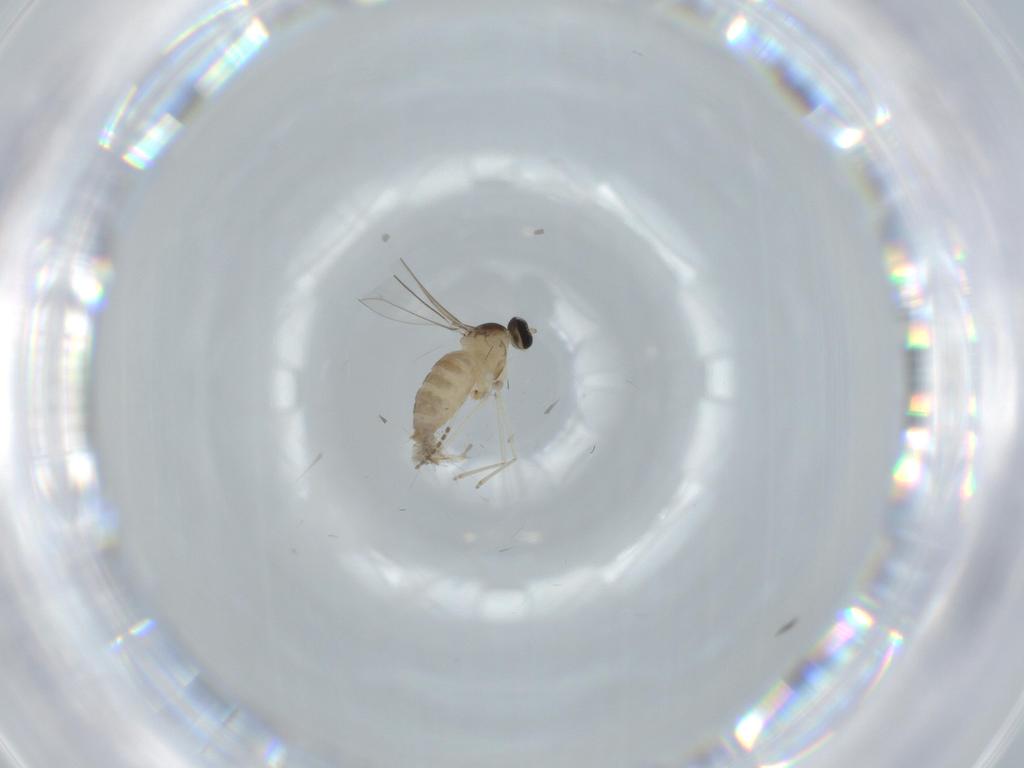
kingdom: Animalia
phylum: Arthropoda
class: Insecta
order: Diptera
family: Cecidomyiidae
